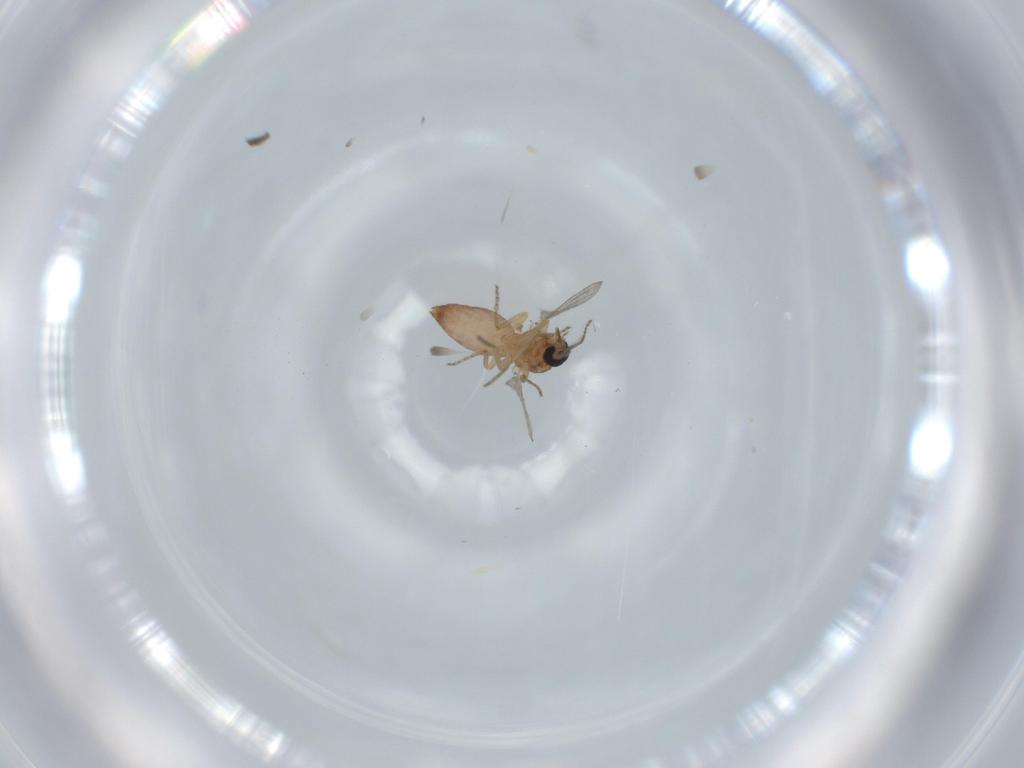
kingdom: Animalia
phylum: Arthropoda
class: Insecta
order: Diptera
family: Ceratopogonidae
